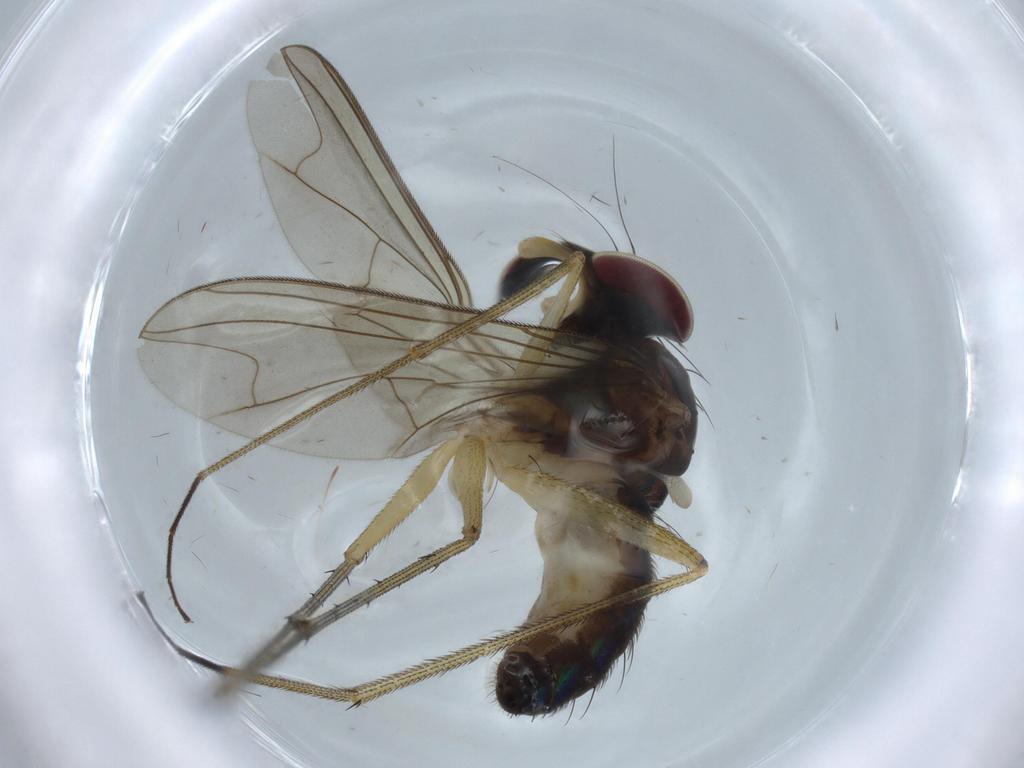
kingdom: Animalia
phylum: Arthropoda
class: Insecta
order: Diptera
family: Dolichopodidae
